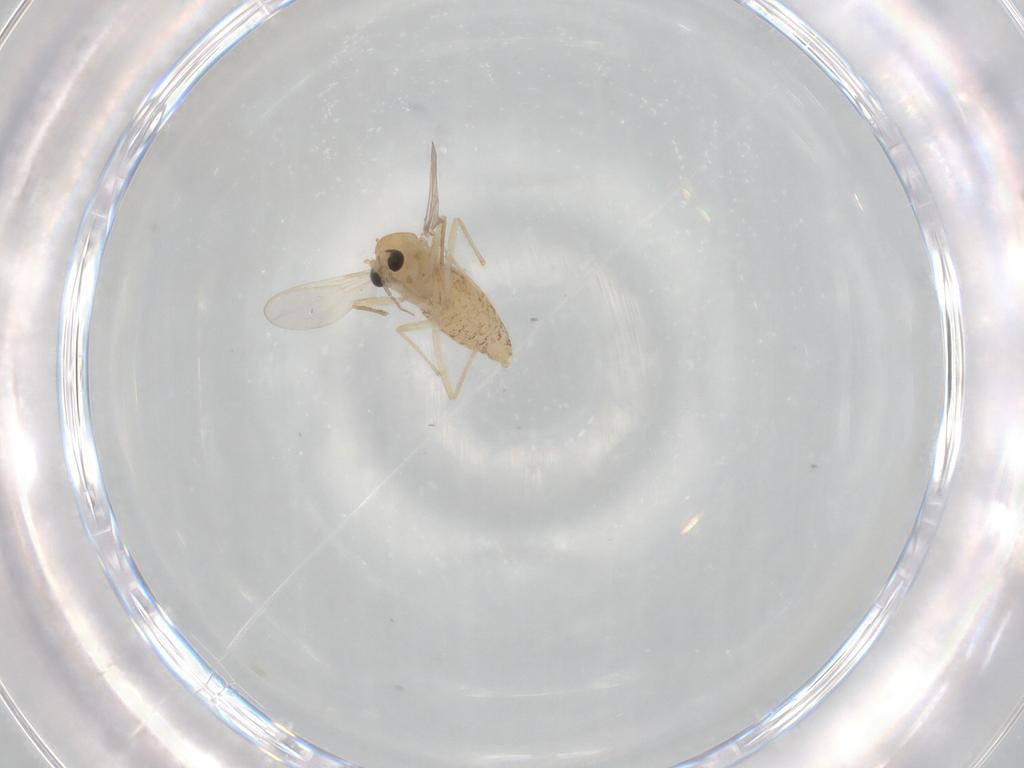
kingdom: Animalia
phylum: Arthropoda
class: Insecta
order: Diptera
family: Chironomidae
